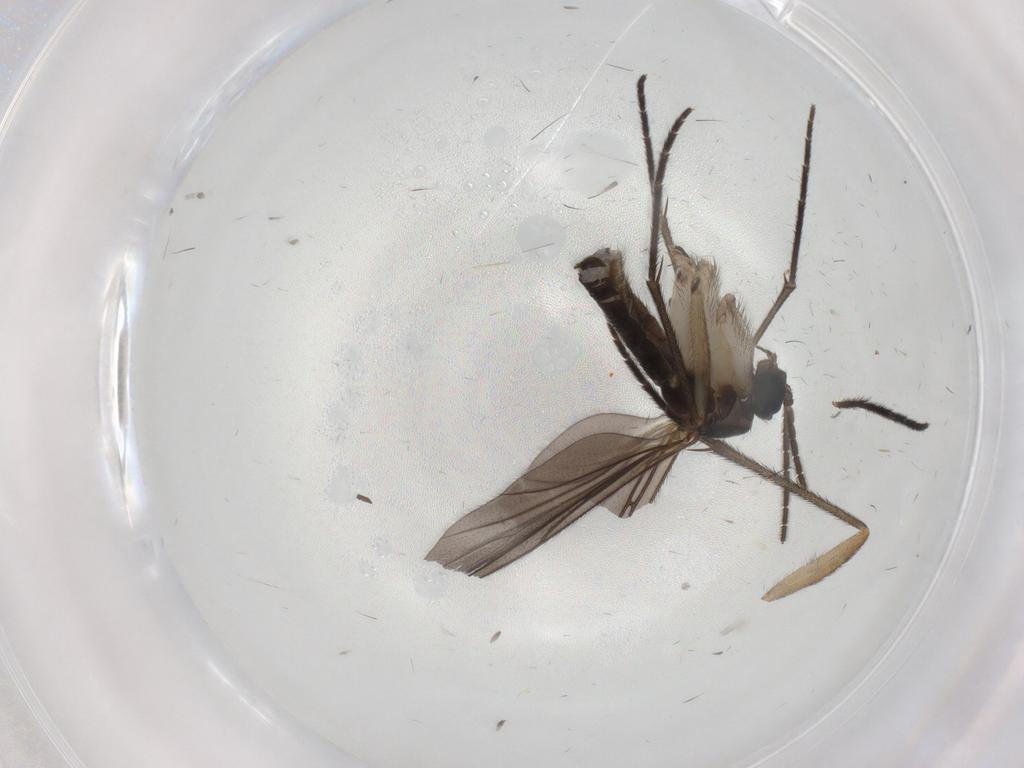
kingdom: Animalia
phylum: Arthropoda
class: Insecta
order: Diptera
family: Sciaridae
